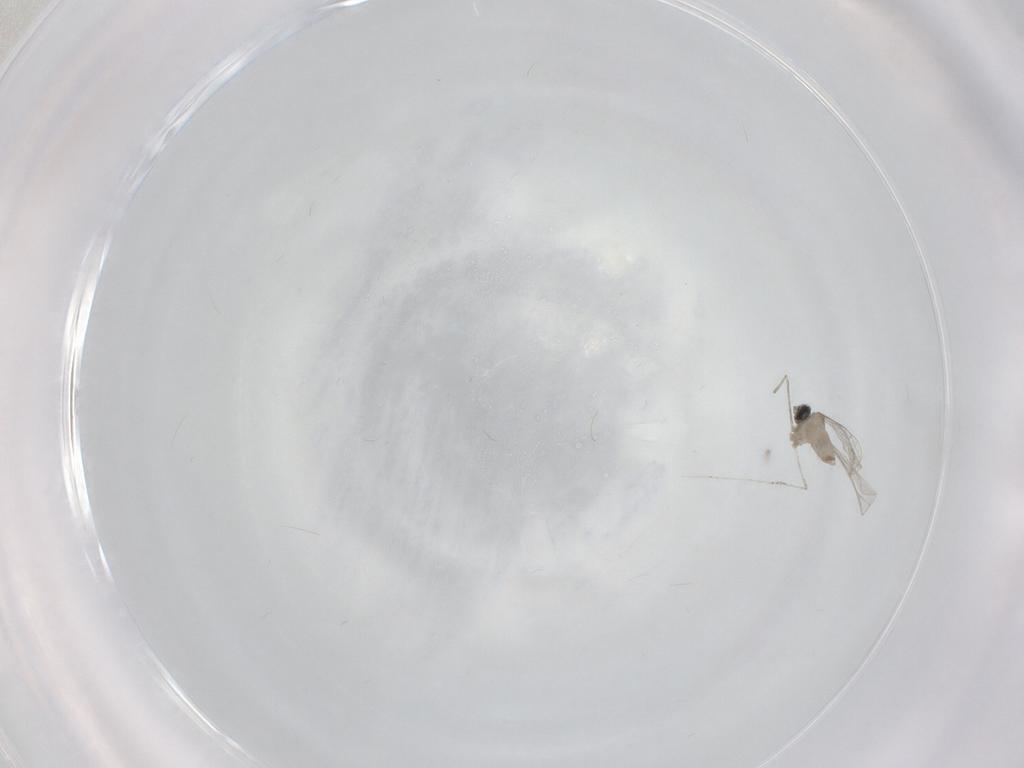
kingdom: Animalia
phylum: Arthropoda
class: Insecta
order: Diptera
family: Cecidomyiidae
